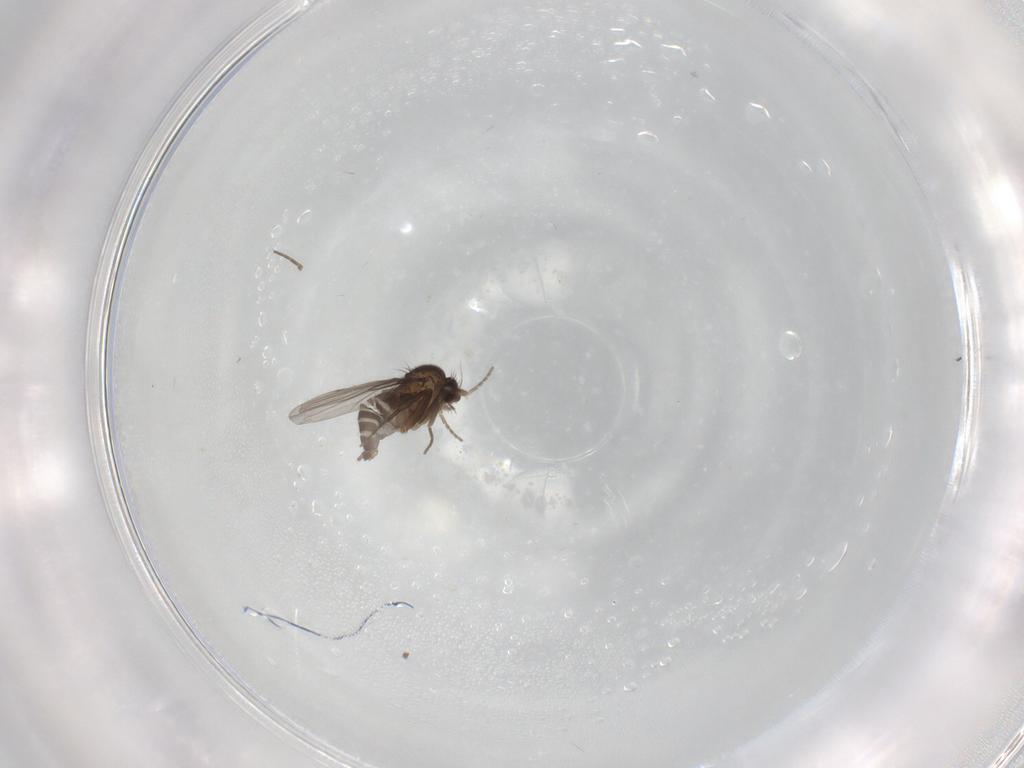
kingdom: Animalia
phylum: Arthropoda
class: Insecta
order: Diptera
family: Phoridae
